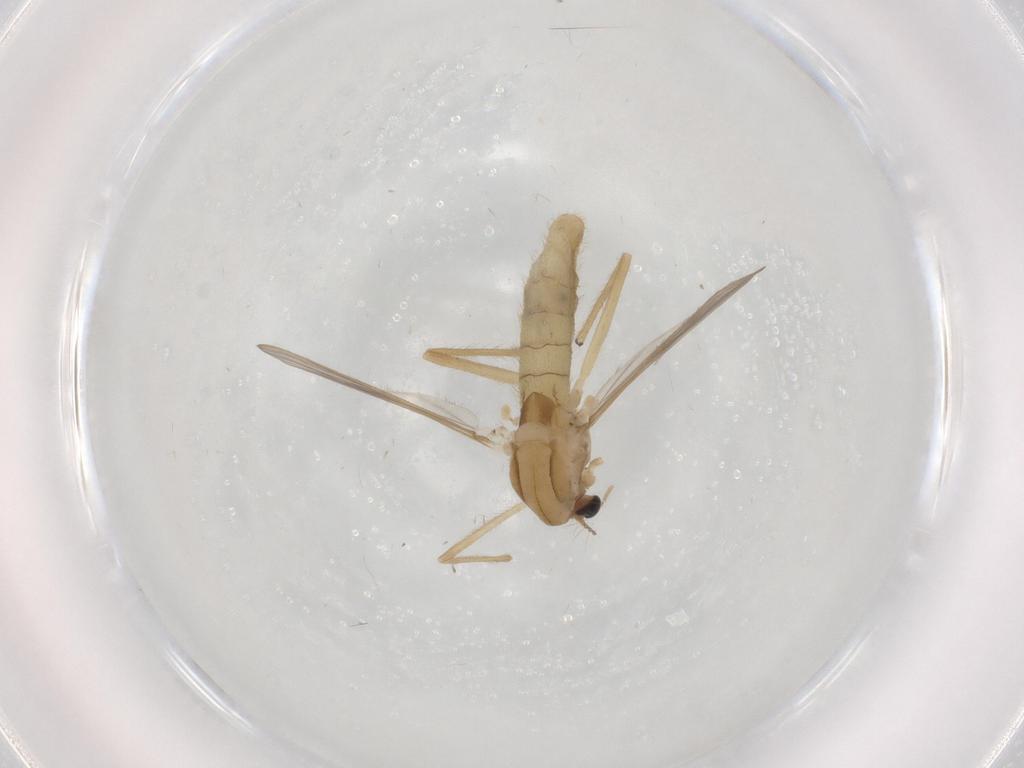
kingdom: Animalia
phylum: Arthropoda
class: Insecta
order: Diptera
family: Chironomidae
